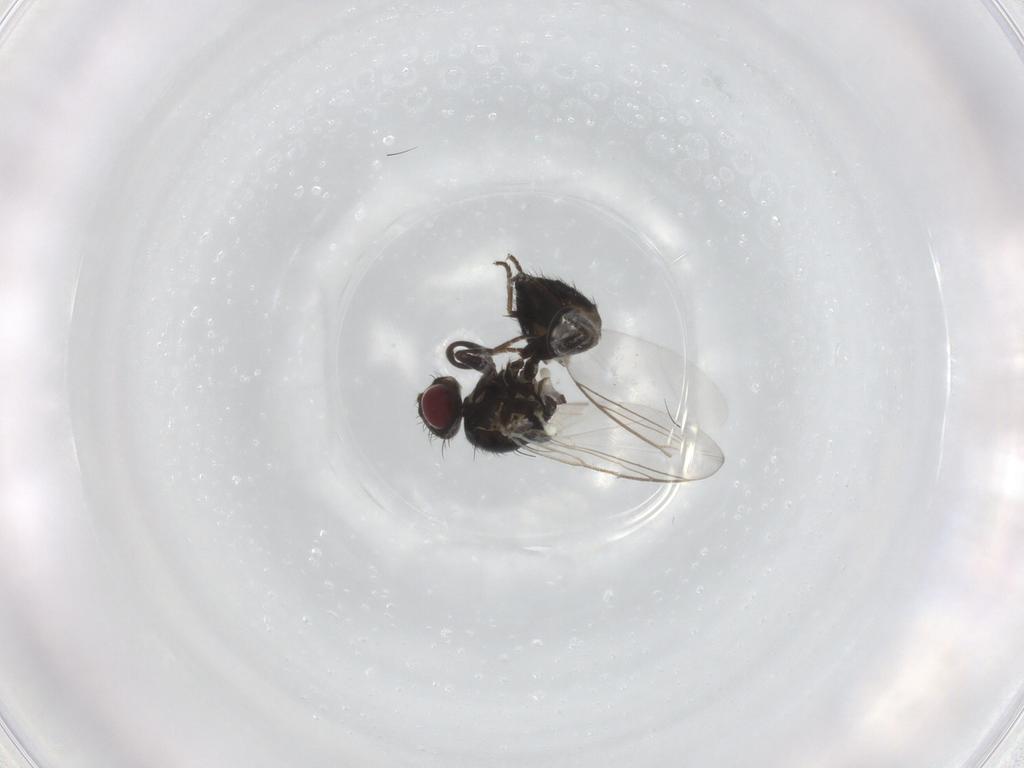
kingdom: Animalia
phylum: Arthropoda
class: Insecta
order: Diptera
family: Agromyzidae
